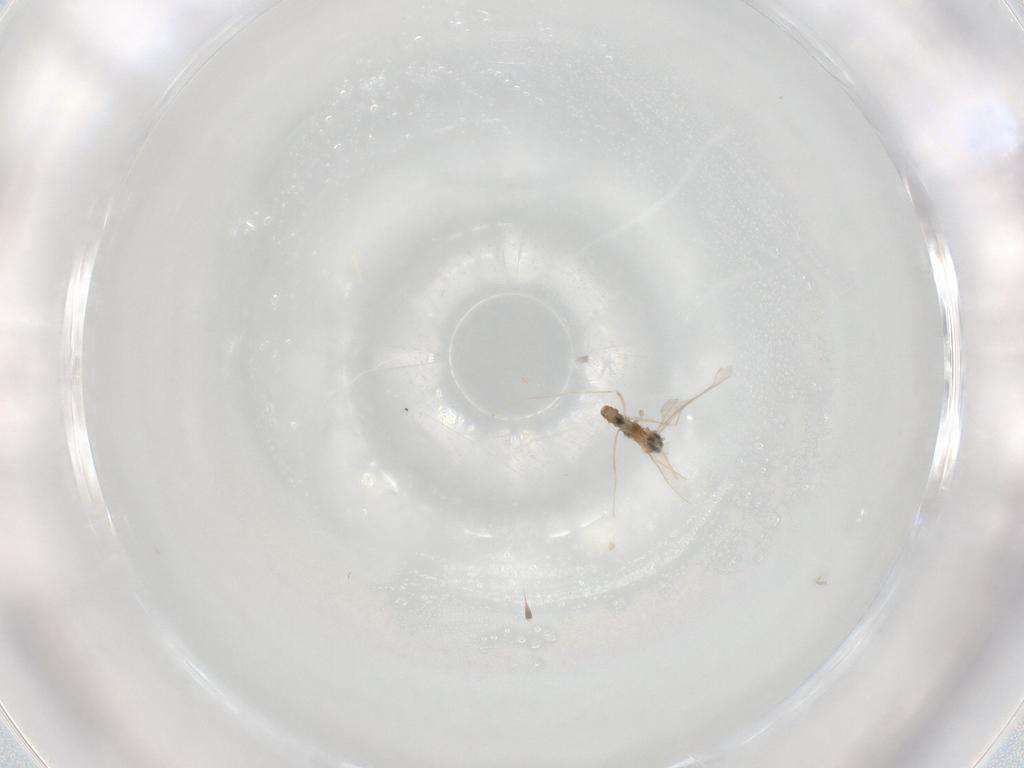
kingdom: Animalia
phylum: Arthropoda
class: Insecta
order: Diptera
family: Cecidomyiidae
